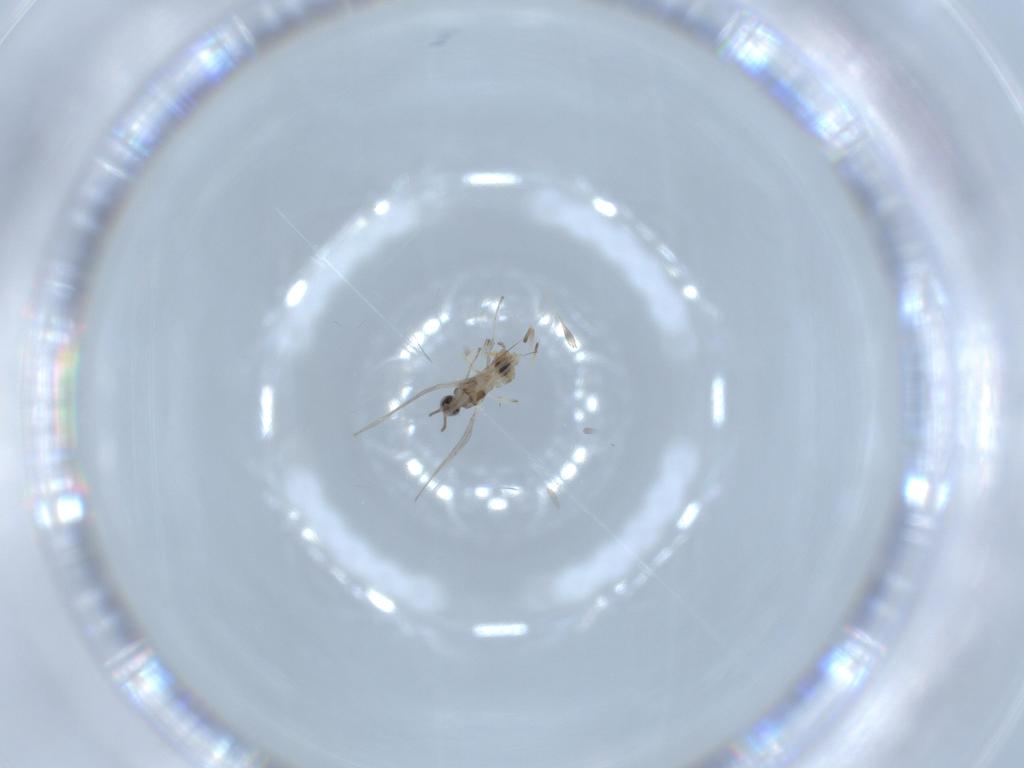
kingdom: Animalia
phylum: Arthropoda
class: Insecta
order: Diptera
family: Cecidomyiidae
